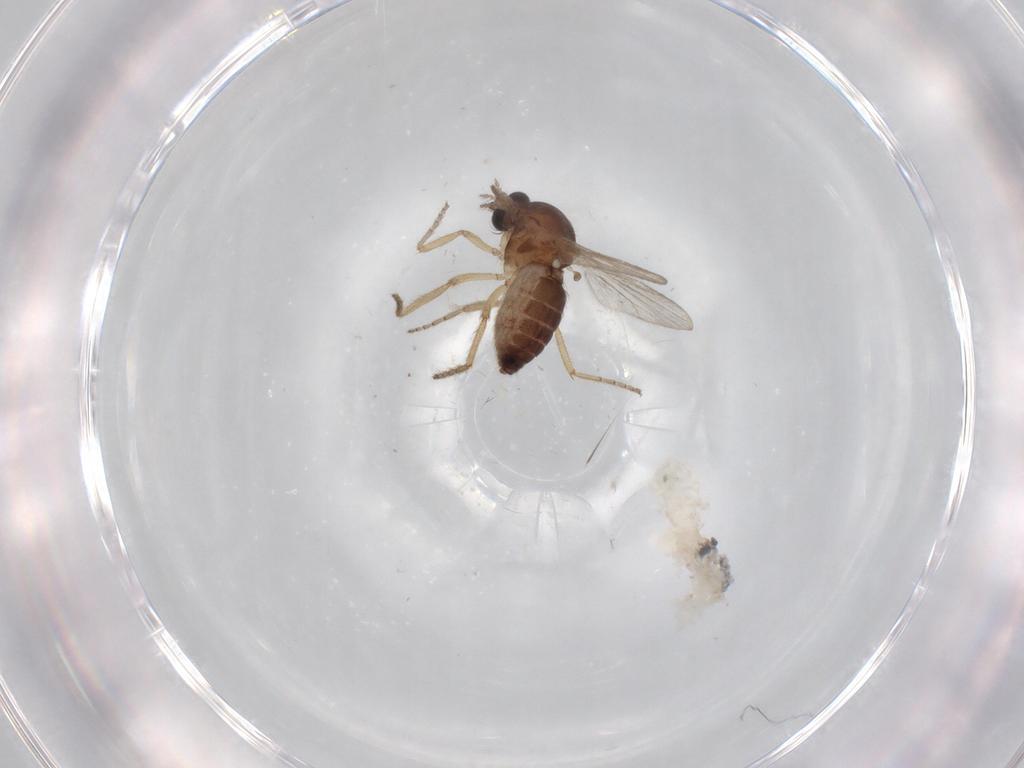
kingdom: Animalia
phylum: Arthropoda
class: Insecta
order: Diptera
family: Ceratopogonidae
